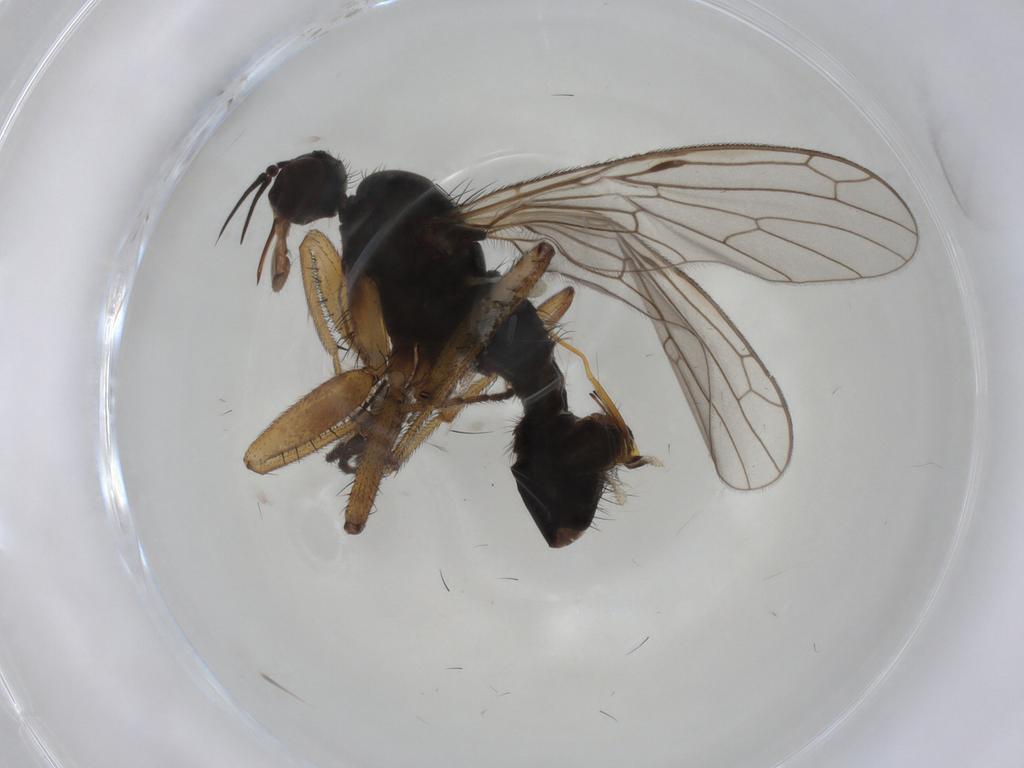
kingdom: Animalia
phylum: Arthropoda
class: Insecta
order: Diptera
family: Empididae
